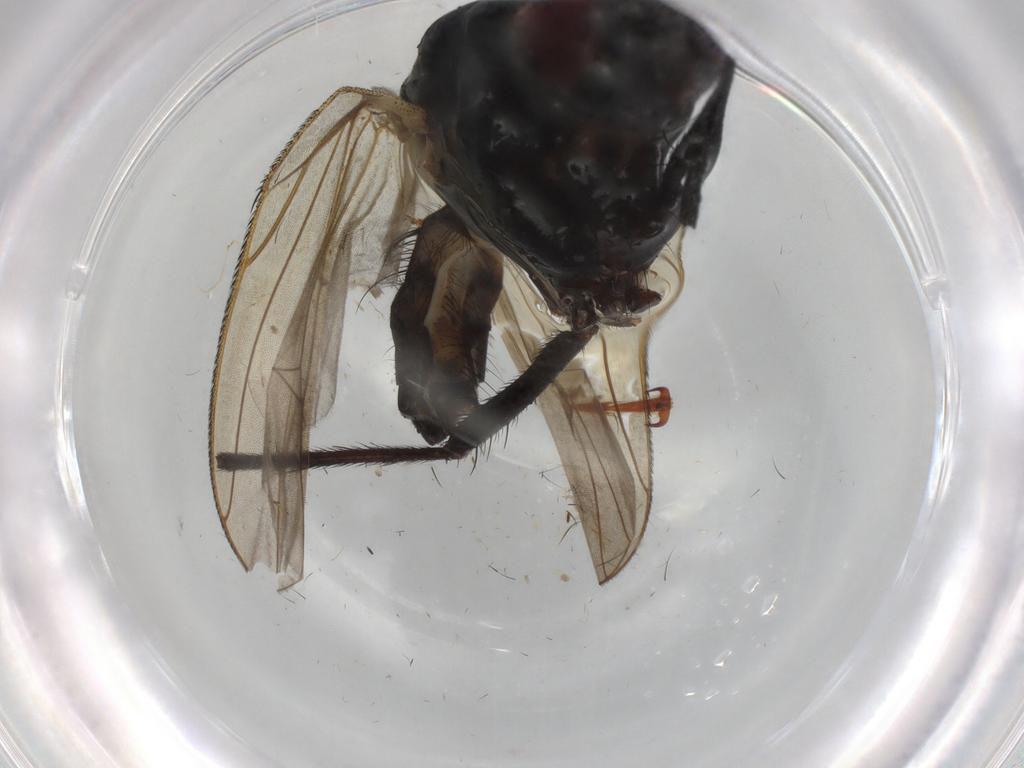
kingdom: Animalia
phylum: Arthropoda
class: Insecta
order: Diptera
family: Anthomyiidae
